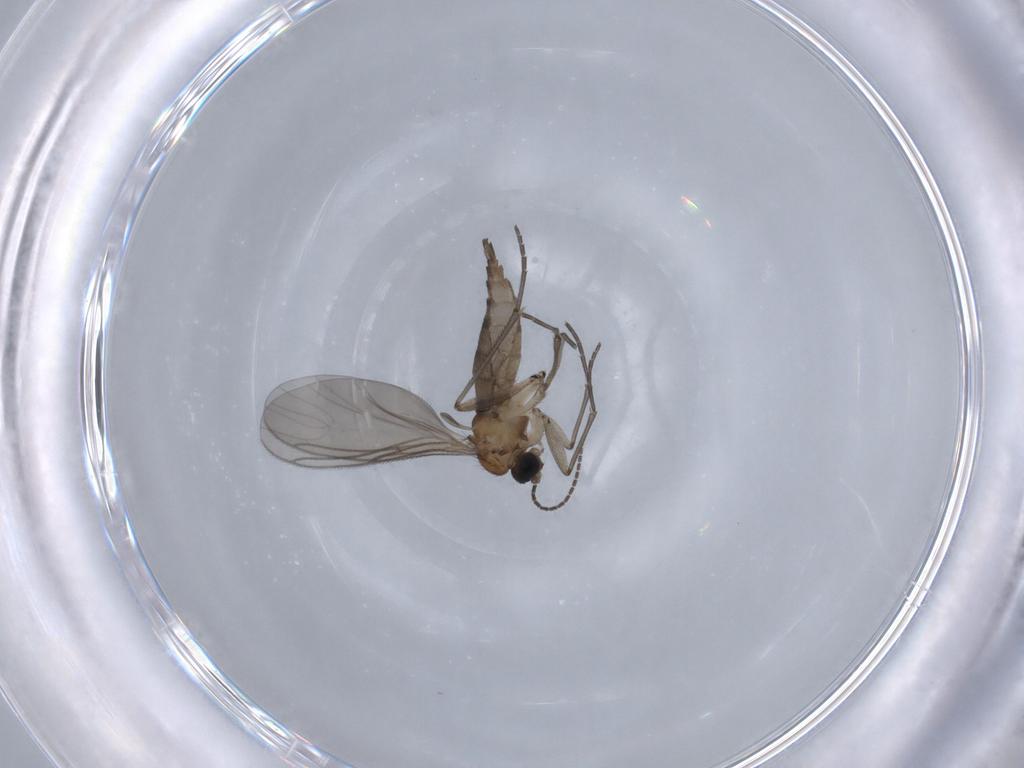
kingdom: Animalia
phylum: Arthropoda
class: Insecta
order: Diptera
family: Sciaridae
